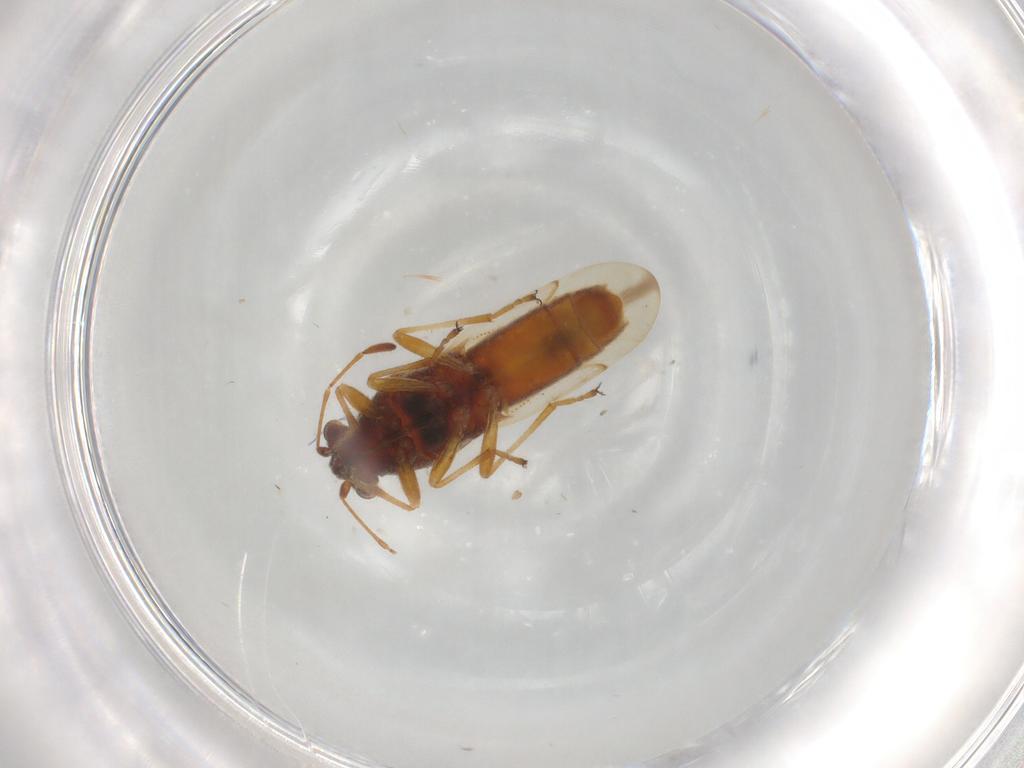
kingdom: Animalia
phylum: Arthropoda
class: Insecta
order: Hemiptera
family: Coreidae
